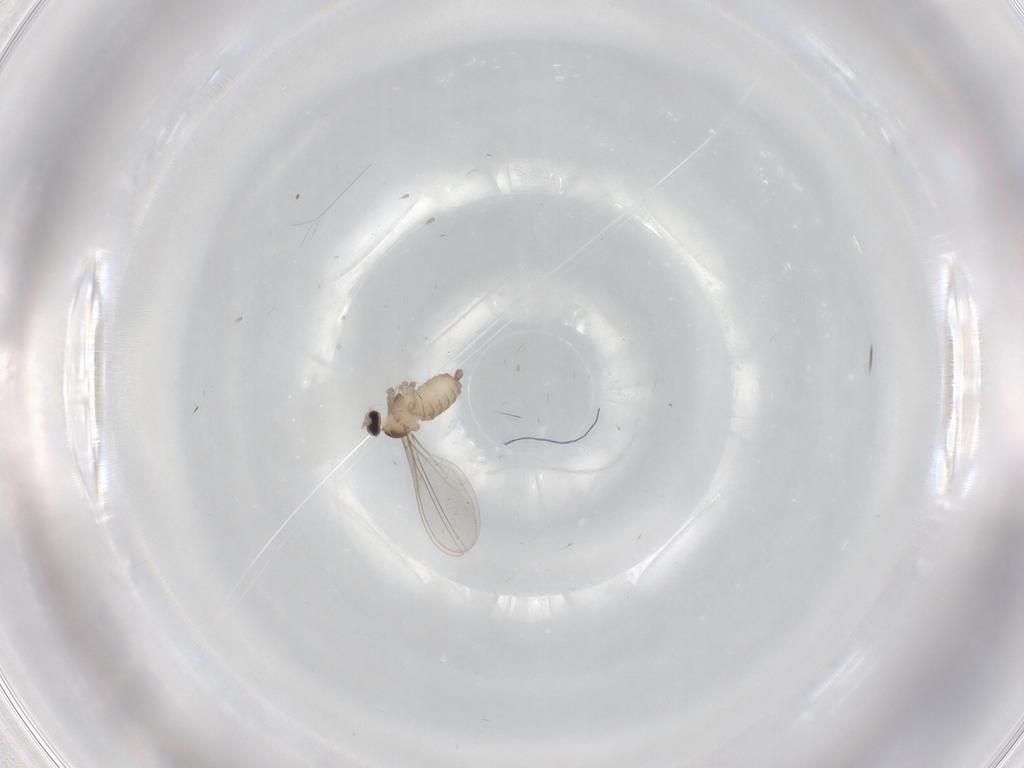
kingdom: Animalia
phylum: Arthropoda
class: Insecta
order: Diptera
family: Cecidomyiidae
